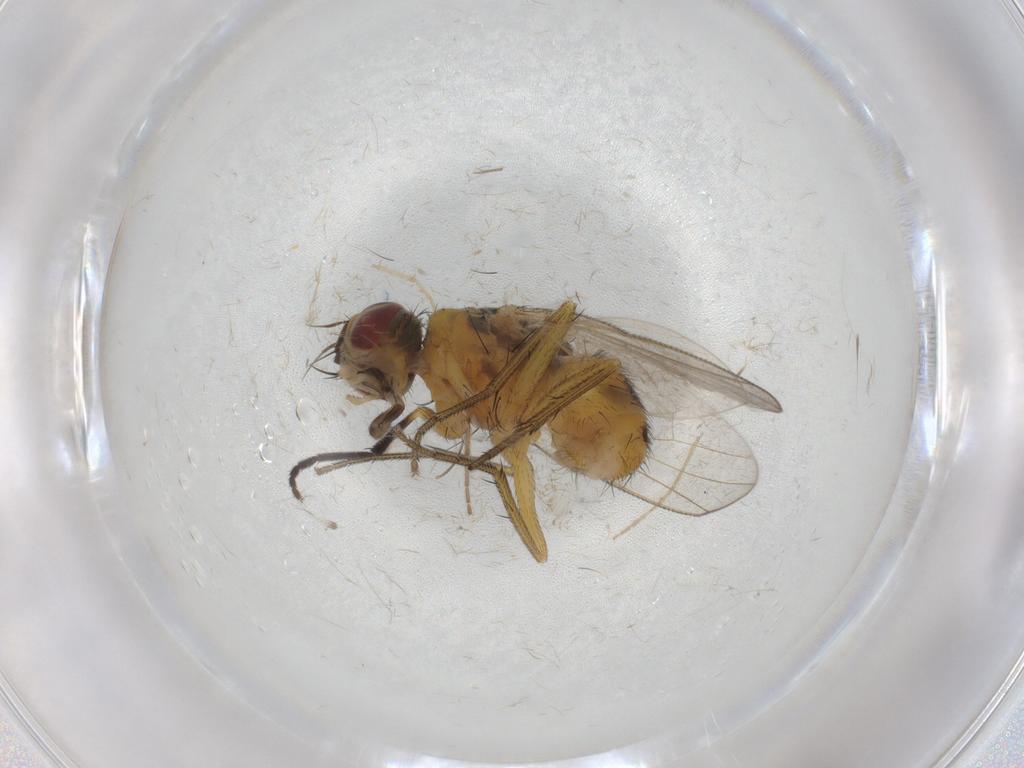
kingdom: Animalia
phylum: Arthropoda
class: Insecta
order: Diptera
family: Muscidae
